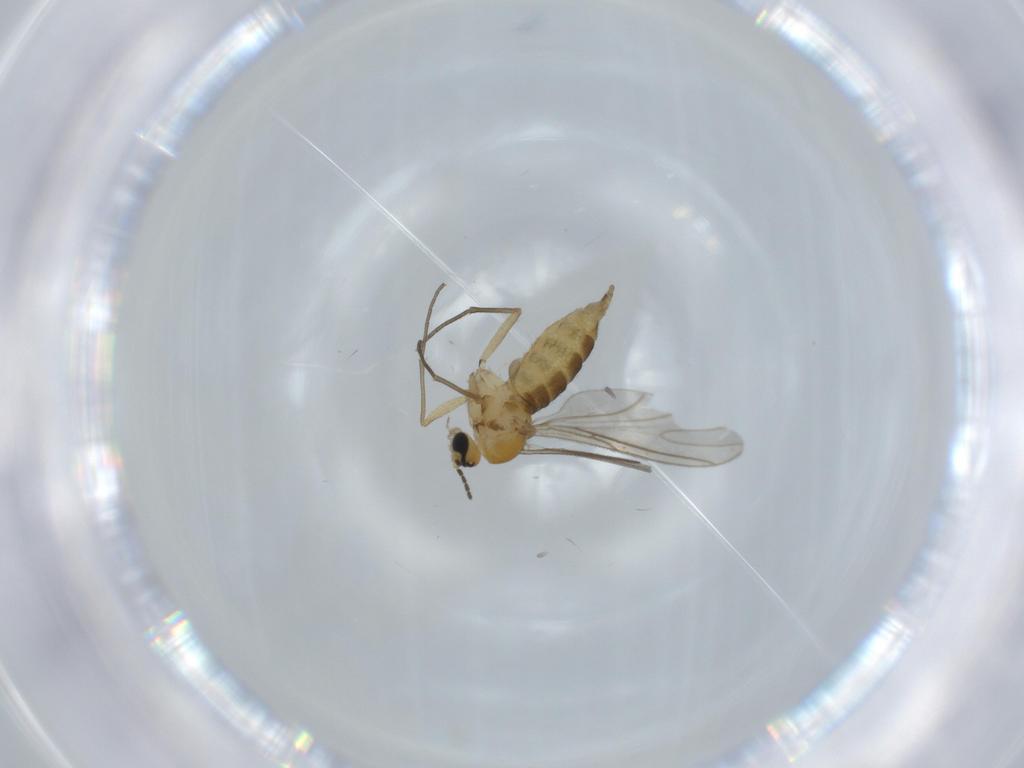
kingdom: Animalia
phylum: Arthropoda
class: Insecta
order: Diptera
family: Sciaridae
